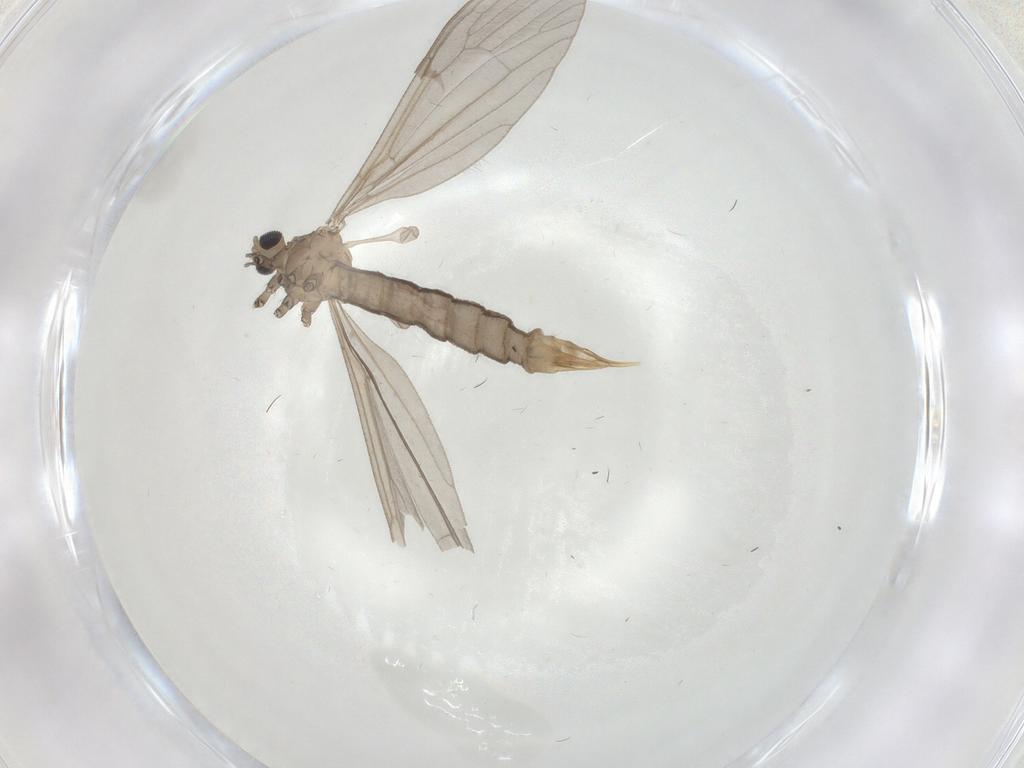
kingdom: Animalia
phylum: Arthropoda
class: Insecta
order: Diptera
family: Limoniidae
